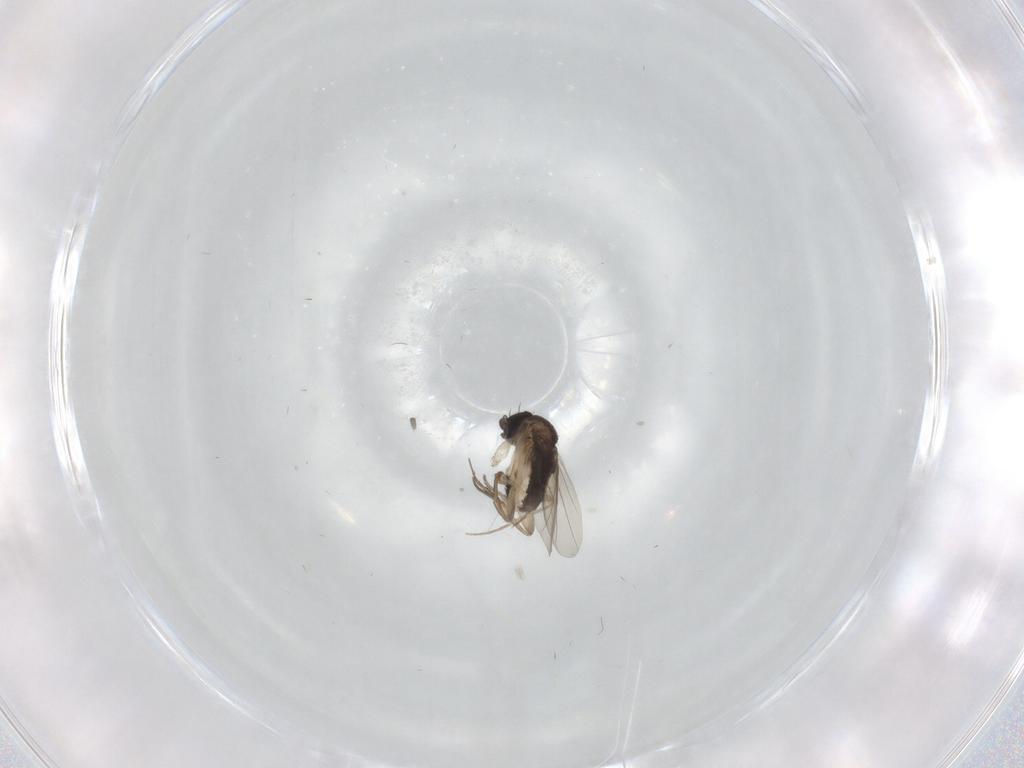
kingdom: Animalia
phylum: Arthropoda
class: Insecta
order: Diptera
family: Phoridae
